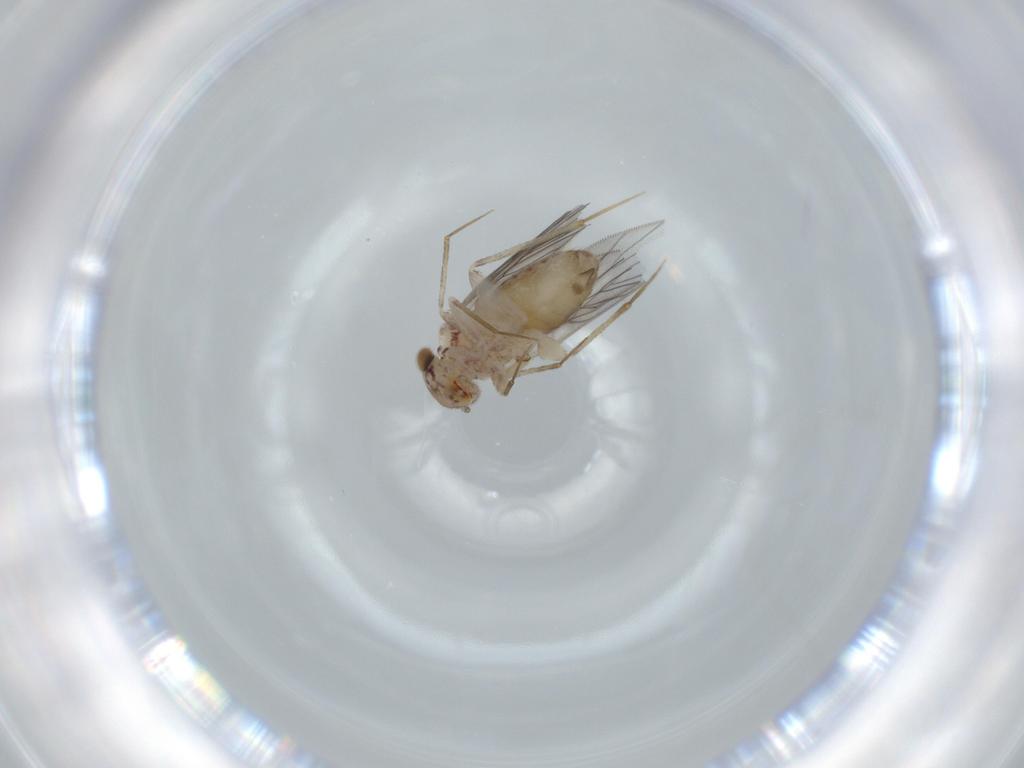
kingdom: Animalia
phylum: Arthropoda
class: Insecta
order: Psocodea
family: Lepidopsocidae
